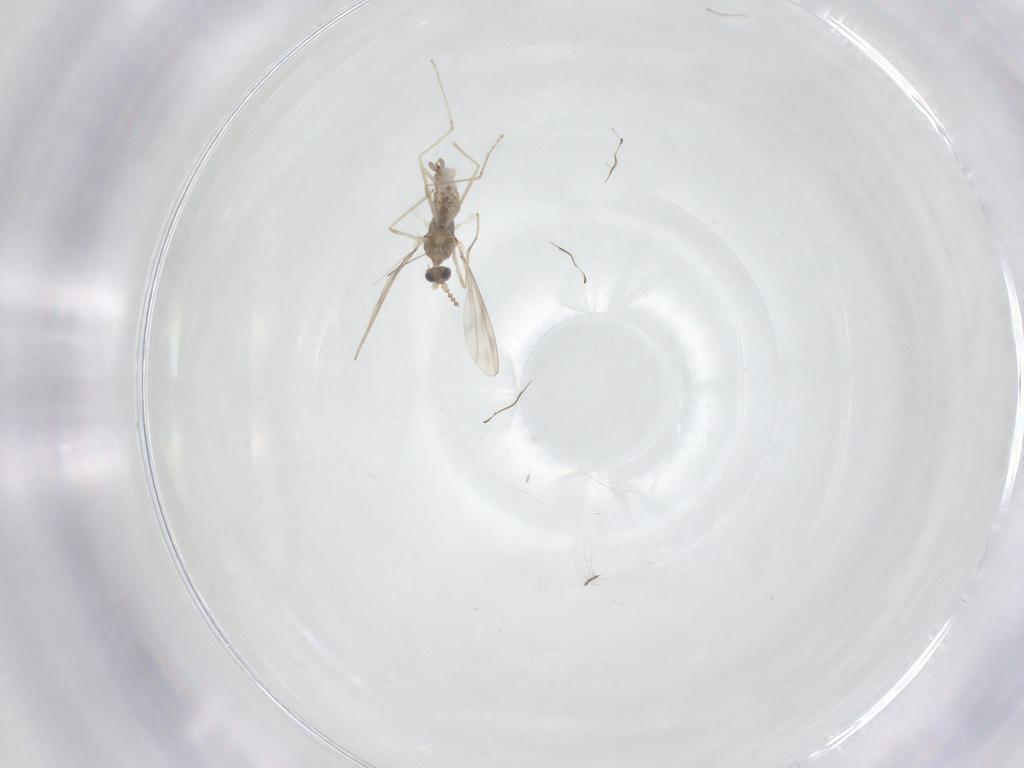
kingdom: Animalia
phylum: Arthropoda
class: Insecta
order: Diptera
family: Cecidomyiidae
